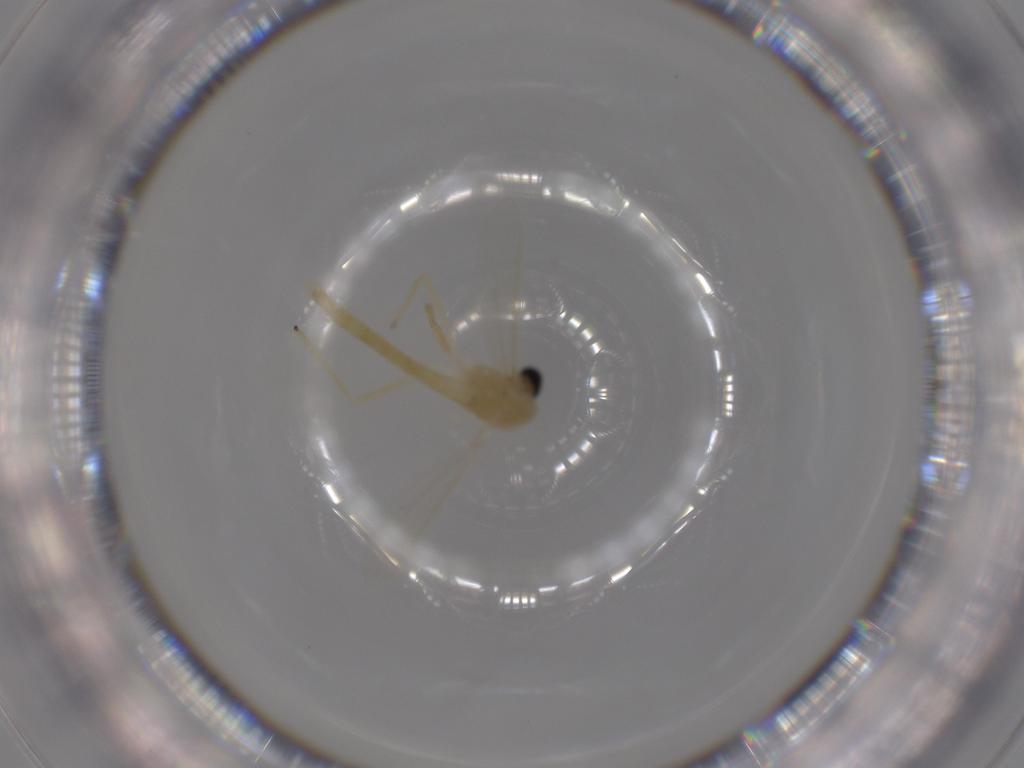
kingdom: Animalia
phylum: Arthropoda
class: Insecta
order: Diptera
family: Chironomidae
